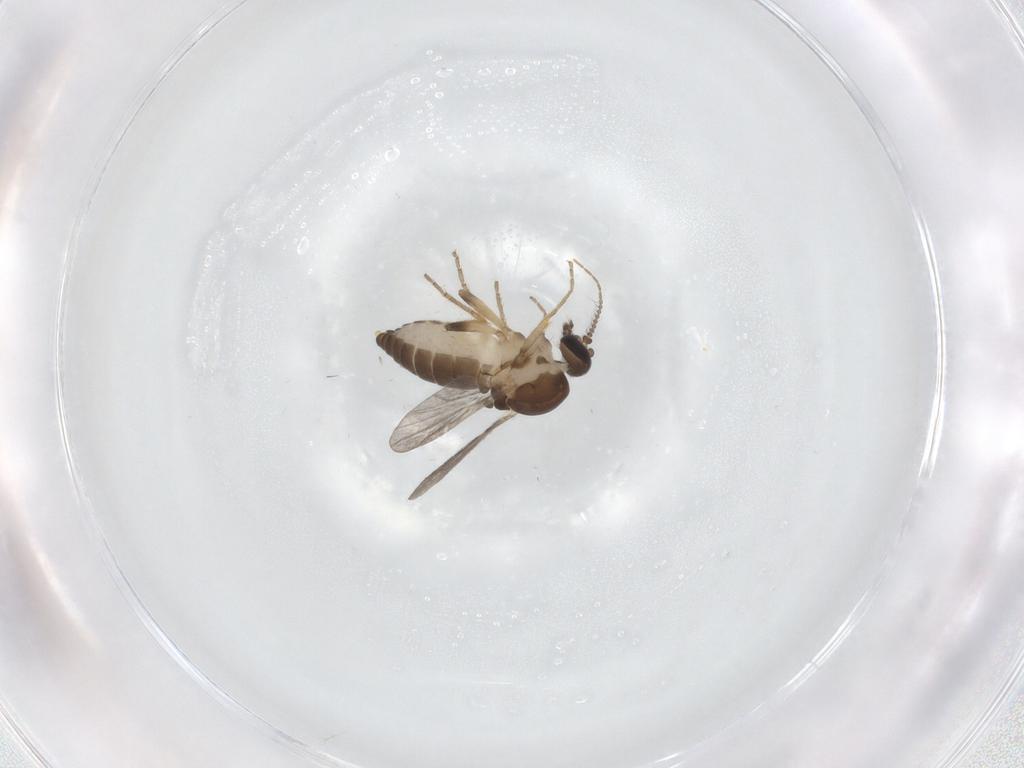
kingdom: Animalia
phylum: Arthropoda
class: Insecta
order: Diptera
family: Ceratopogonidae
